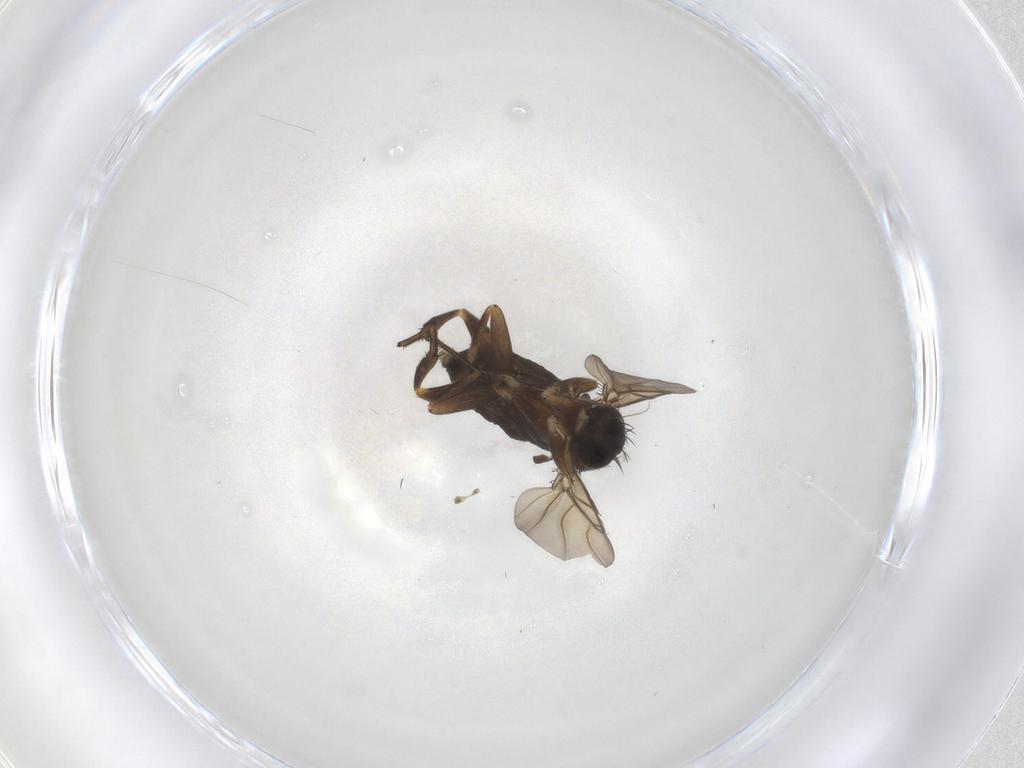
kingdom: Animalia
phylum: Arthropoda
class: Insecta
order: Diptera
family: Phoridae
